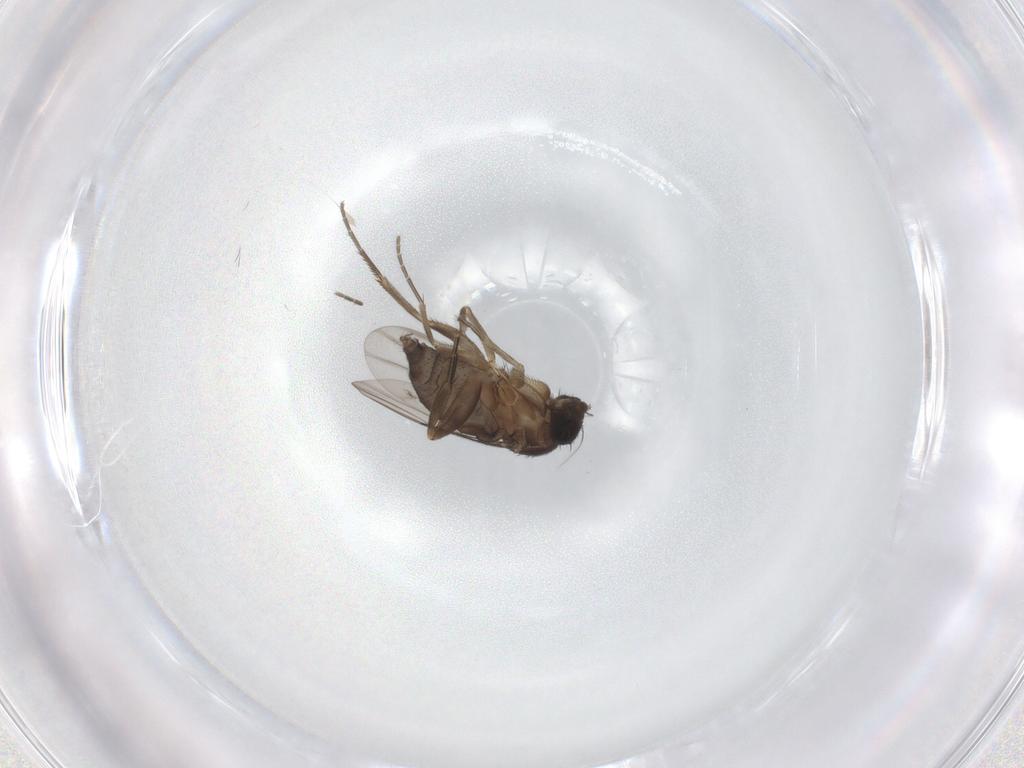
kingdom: Animalia
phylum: Arthropoda
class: Insecta
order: Diptera
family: Phoridae
